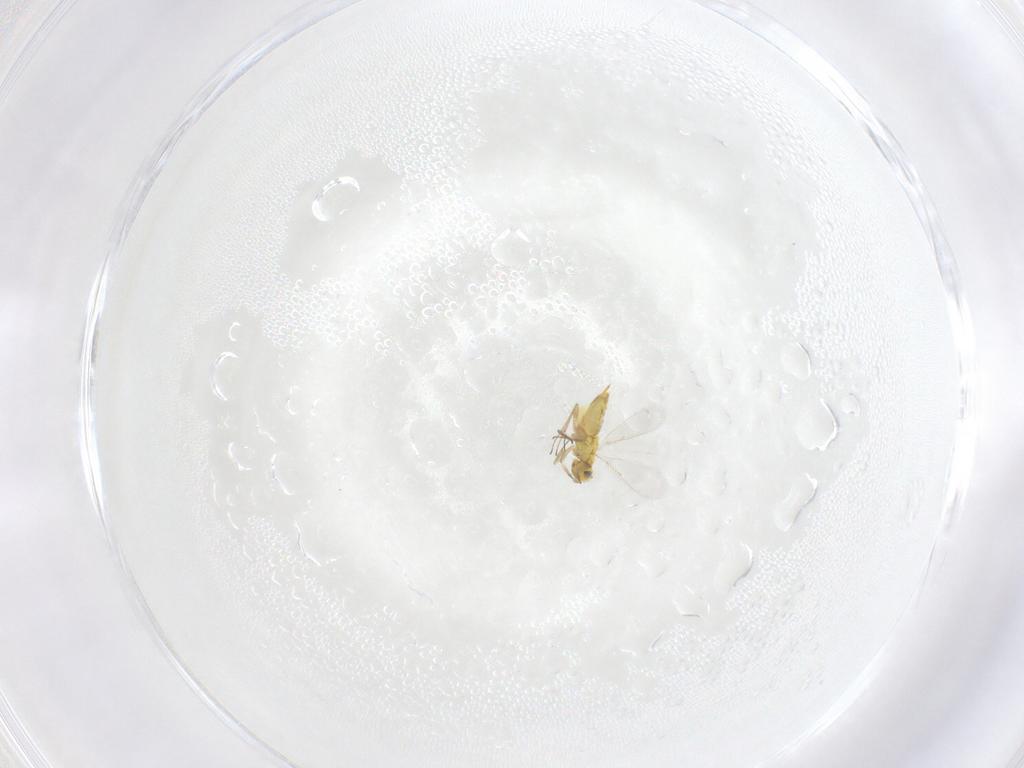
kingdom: Animalia
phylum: Arthropoda
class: Insecta
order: Hymenoptera
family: Aphelinidae
